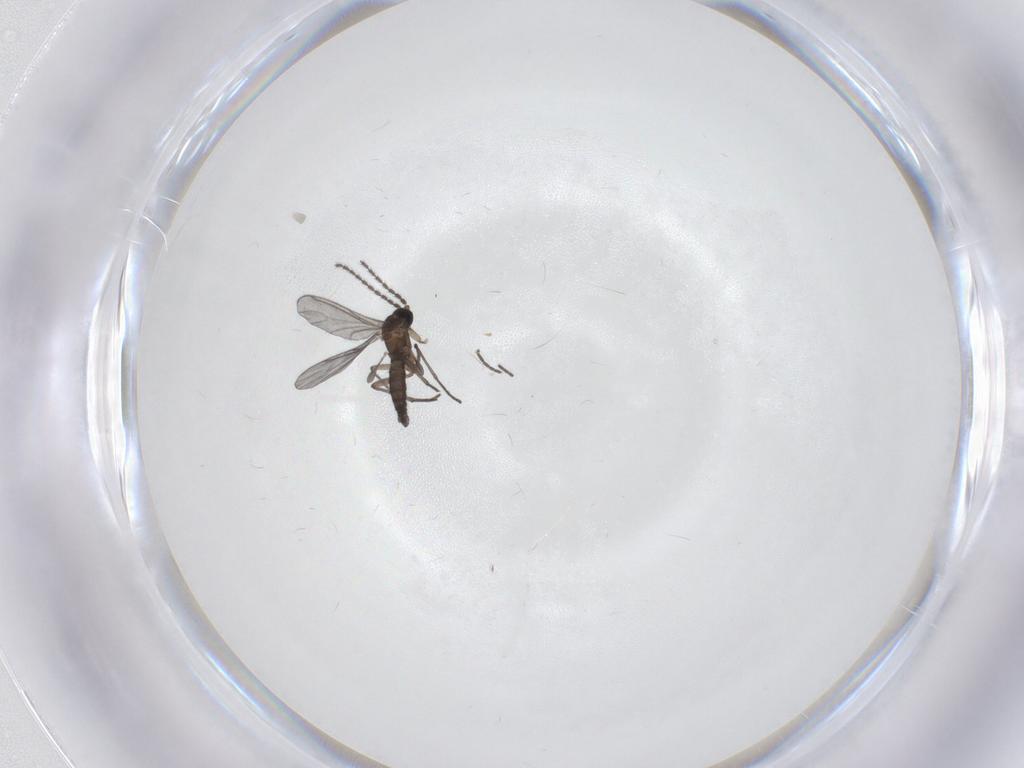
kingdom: Animalia
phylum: Arthropoda
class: Insecta
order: Diptera
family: Sciaridae
